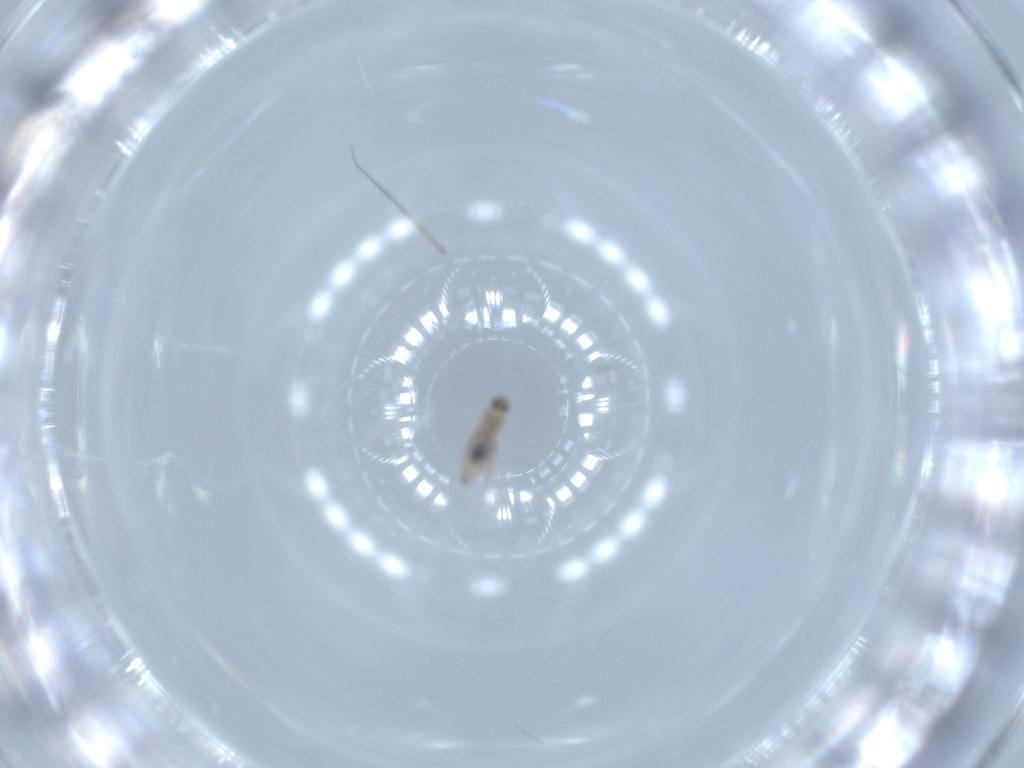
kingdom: Animalia
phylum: Arthropoda
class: Insecta
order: Diptera
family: Cecidomyiidae
